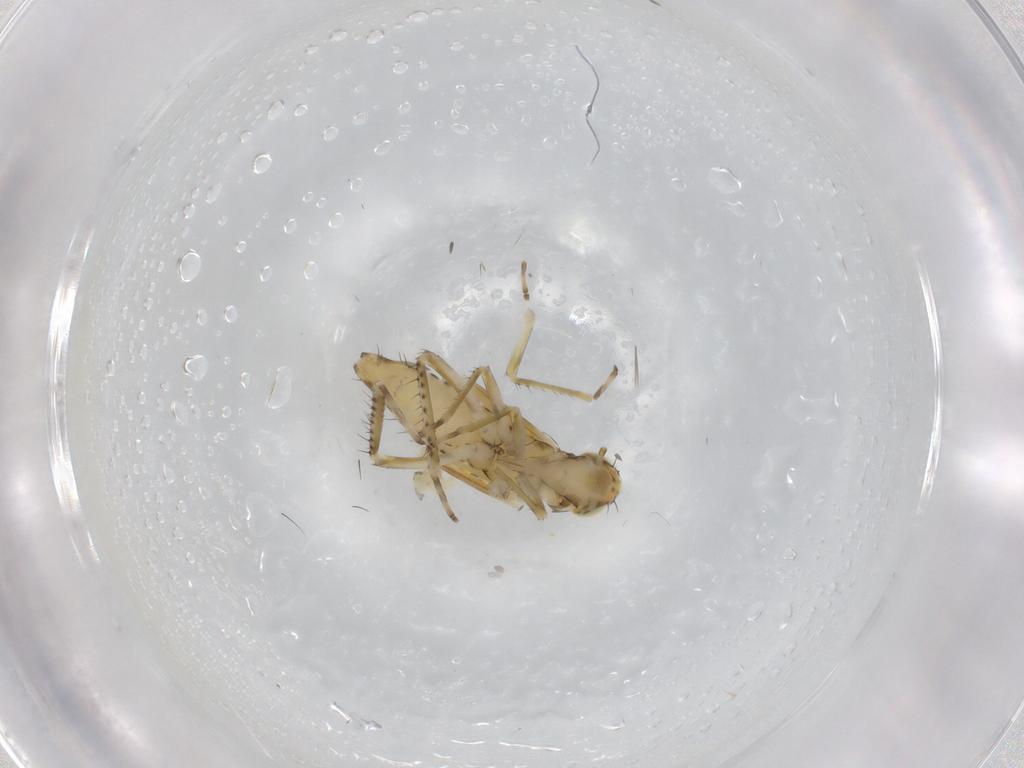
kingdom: Animalia
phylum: Arthropoda
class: Insecta
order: Hemiptera
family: Cicadellidae
